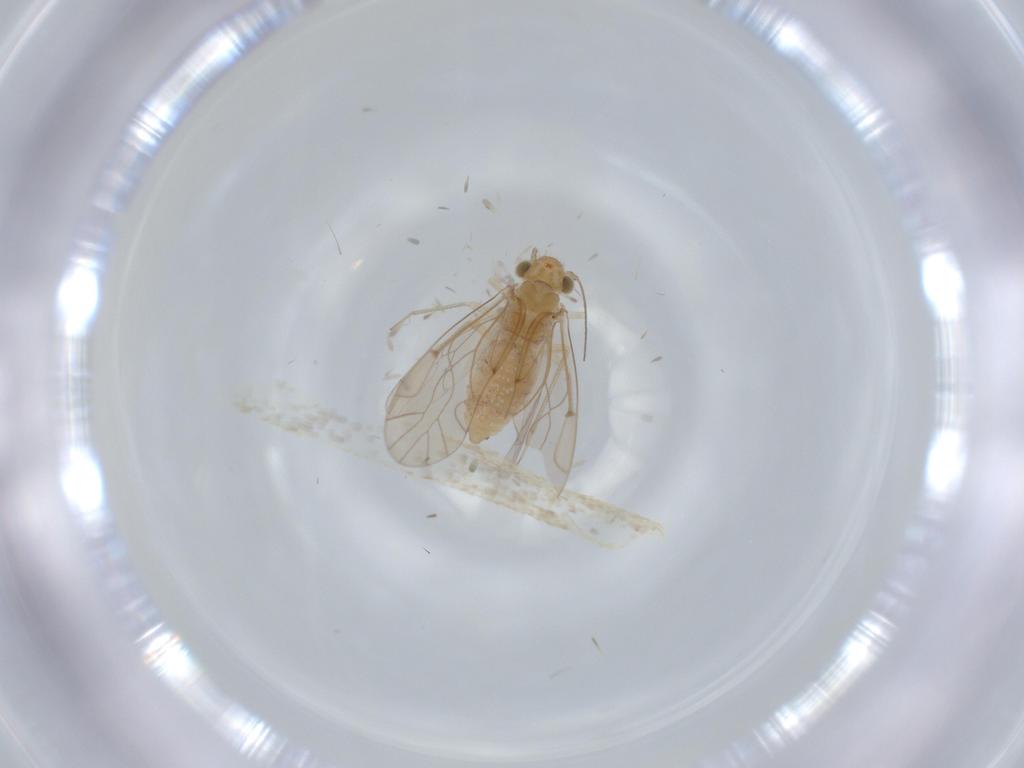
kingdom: Animalia
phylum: Arthropoda
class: Insecta
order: Psocodea
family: Lachesillidae
